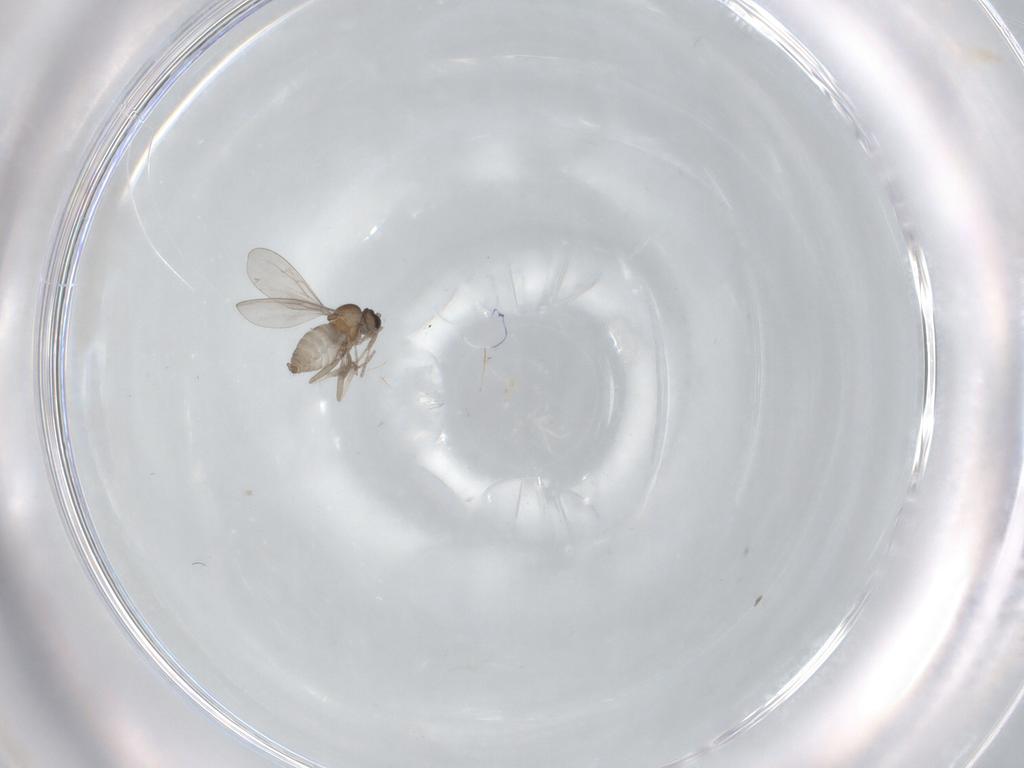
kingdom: Animalia
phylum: Arthropoda
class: Insecta
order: Diptera
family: Cecidomyiidae
